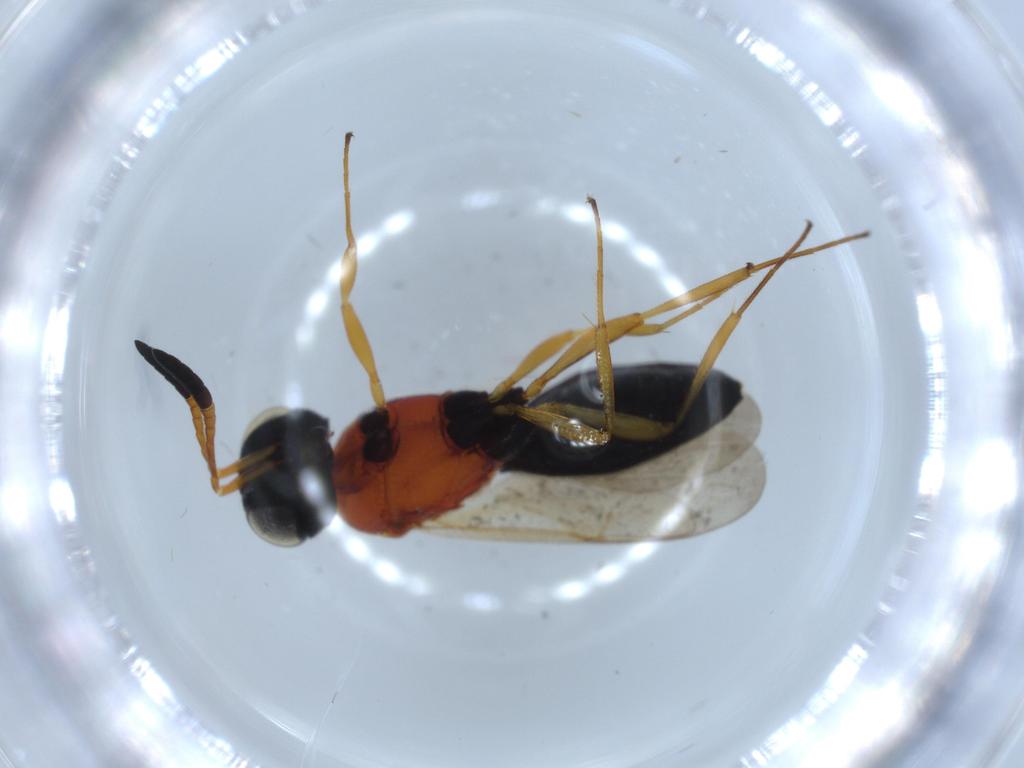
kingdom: Animalia
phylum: Arthropoda
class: Insecta
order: Hymenoptera
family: Scelionidae
